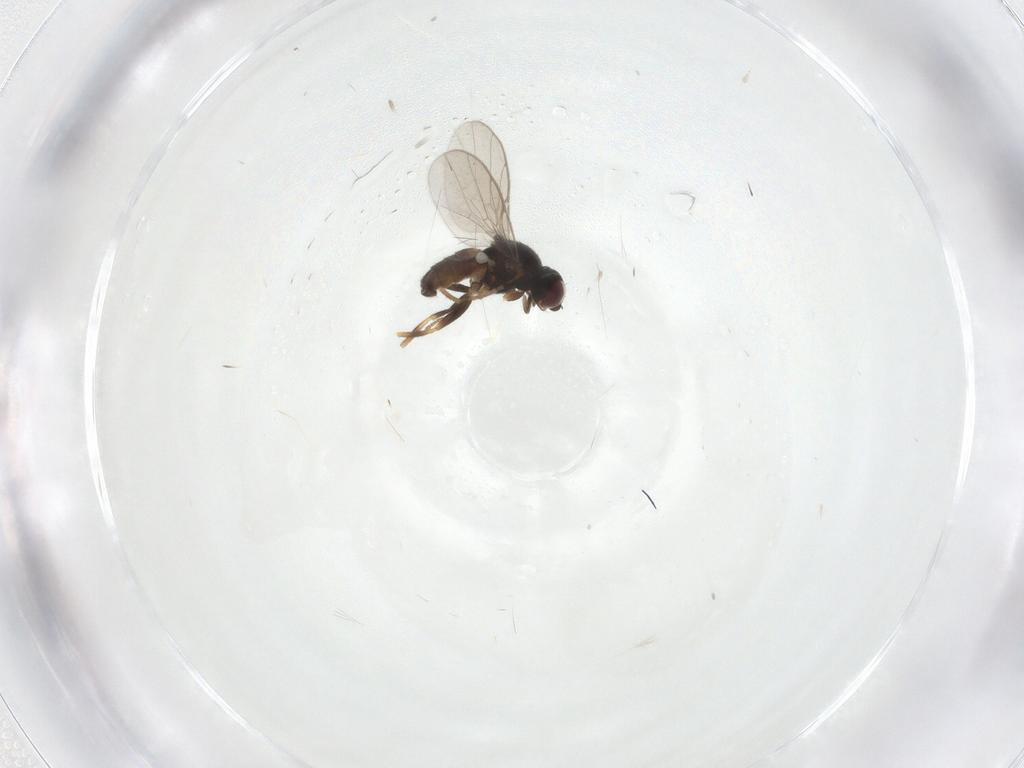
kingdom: Animalia
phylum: Arthropoda
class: Insecta
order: Diptera
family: Chloropidae
